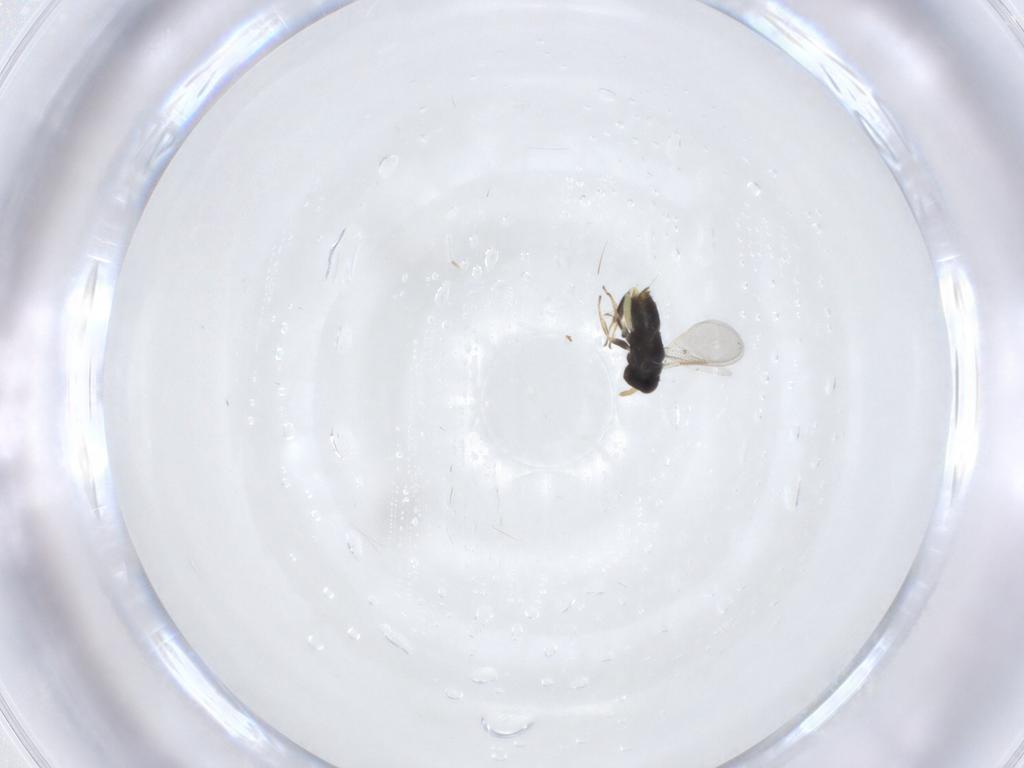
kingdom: Animalia
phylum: Arthropoda
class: Insecta
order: Hymenoptera
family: Aphelinidae
